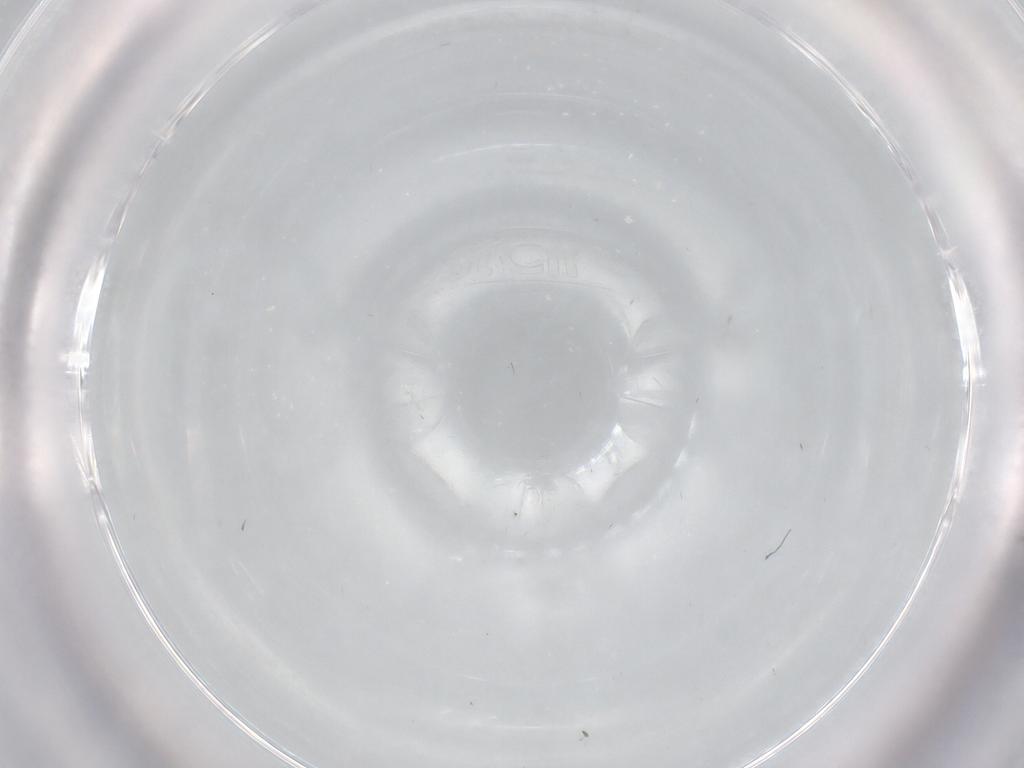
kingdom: Animalia
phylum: Arthropoda
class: Insecta
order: Diptera
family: Cecidomyiidae
